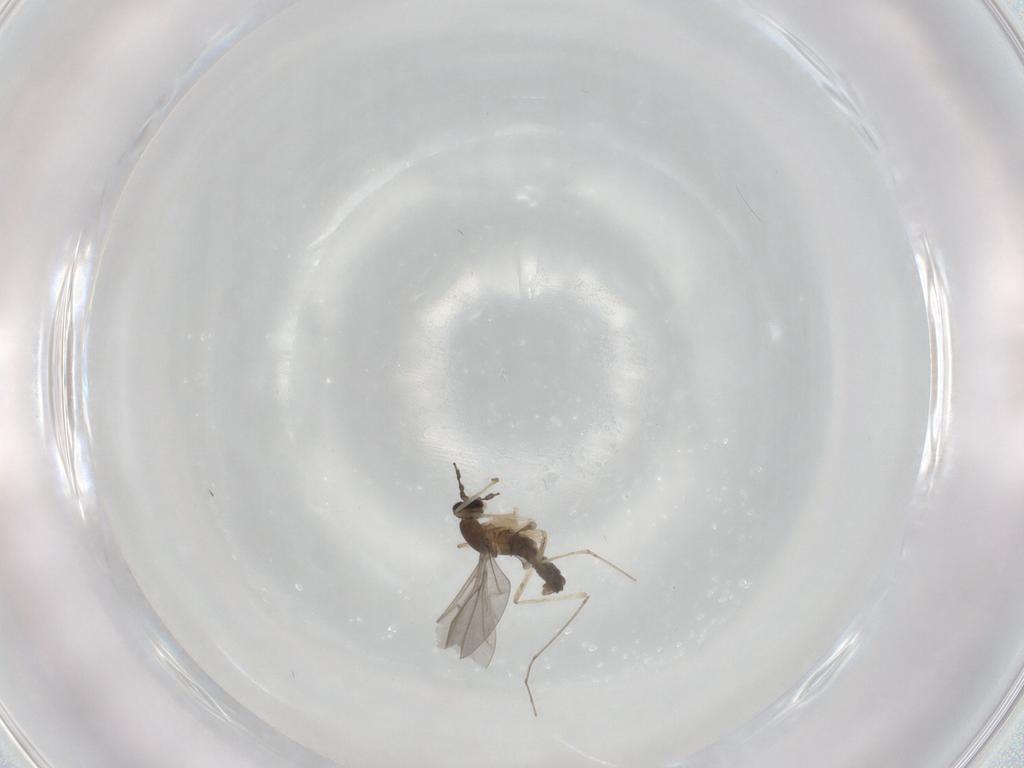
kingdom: Animalia
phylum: Arthropoda
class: Insecta
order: Diptera
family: Cecidomyiidae
